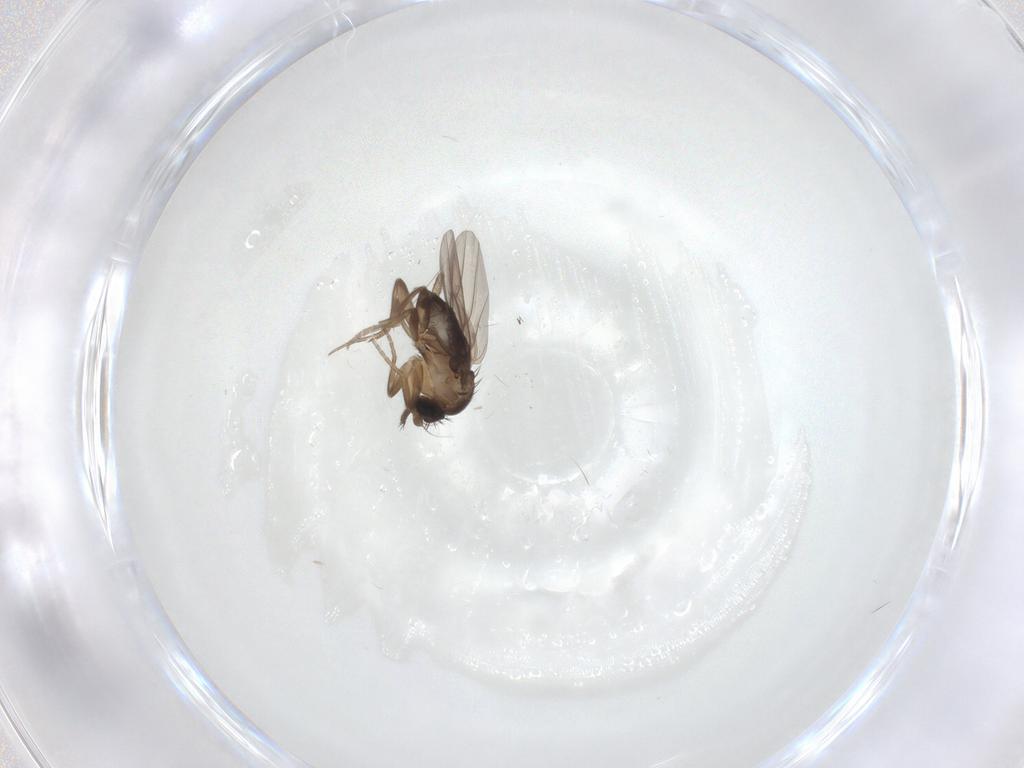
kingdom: Animalia
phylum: Arthropoda
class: Insecta
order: Diptera
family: Phoridae
